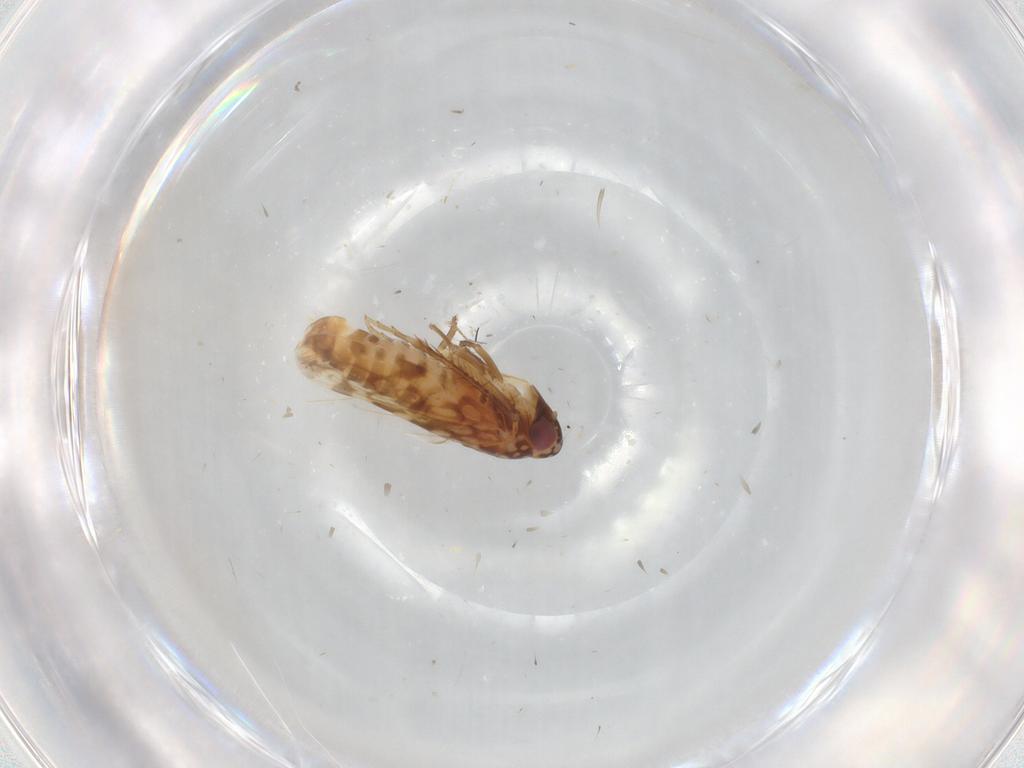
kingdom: Animalia
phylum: Arthropoda
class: Insecta
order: Hemiptera
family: Cicadellidae
